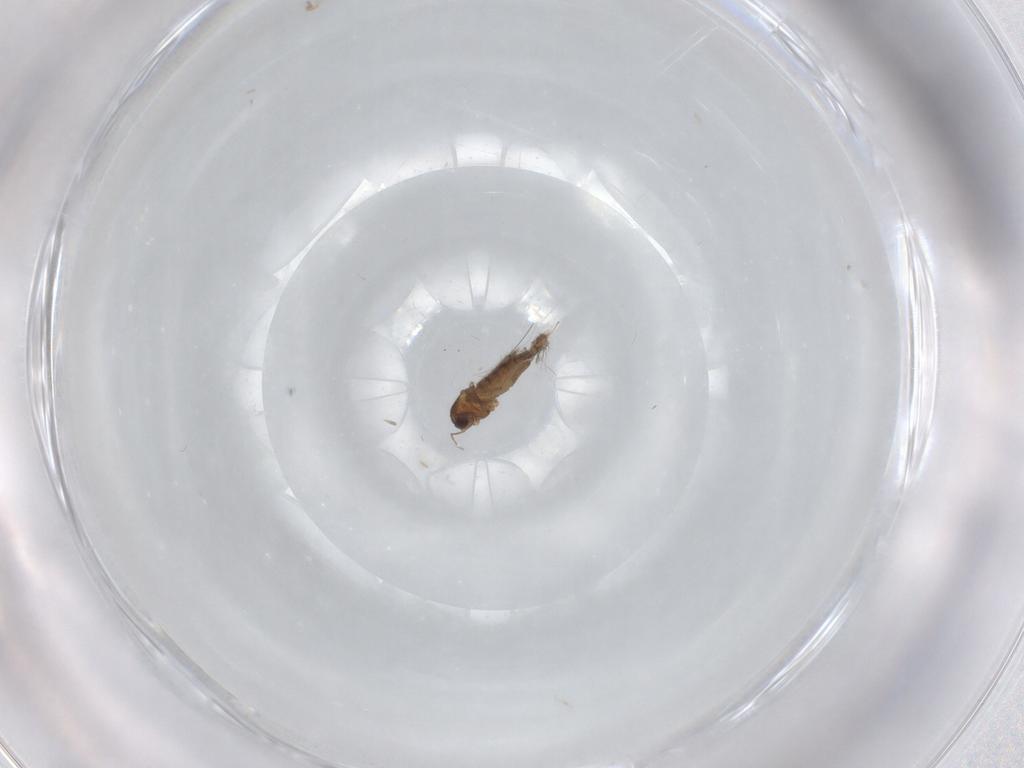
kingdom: Animalia
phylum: Arthropoda
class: Insecta
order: Diptera
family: Chironomidae
